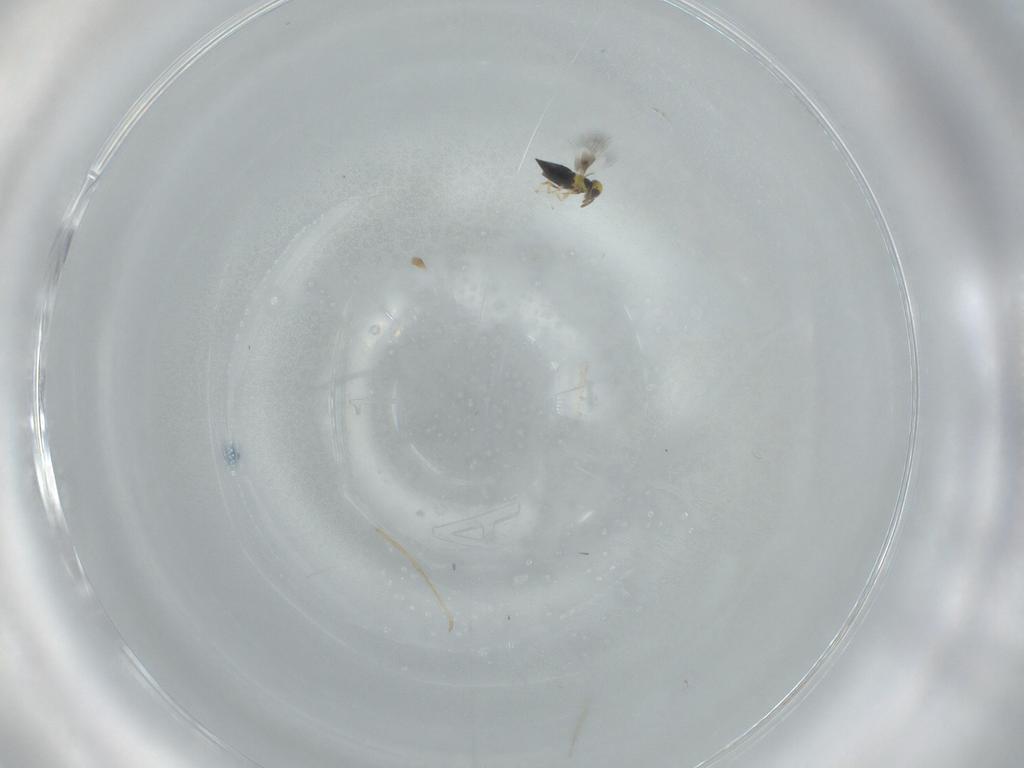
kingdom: Animalia
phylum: Arthropoda
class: Insecta
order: Hymenoptera
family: Signiphoridae
